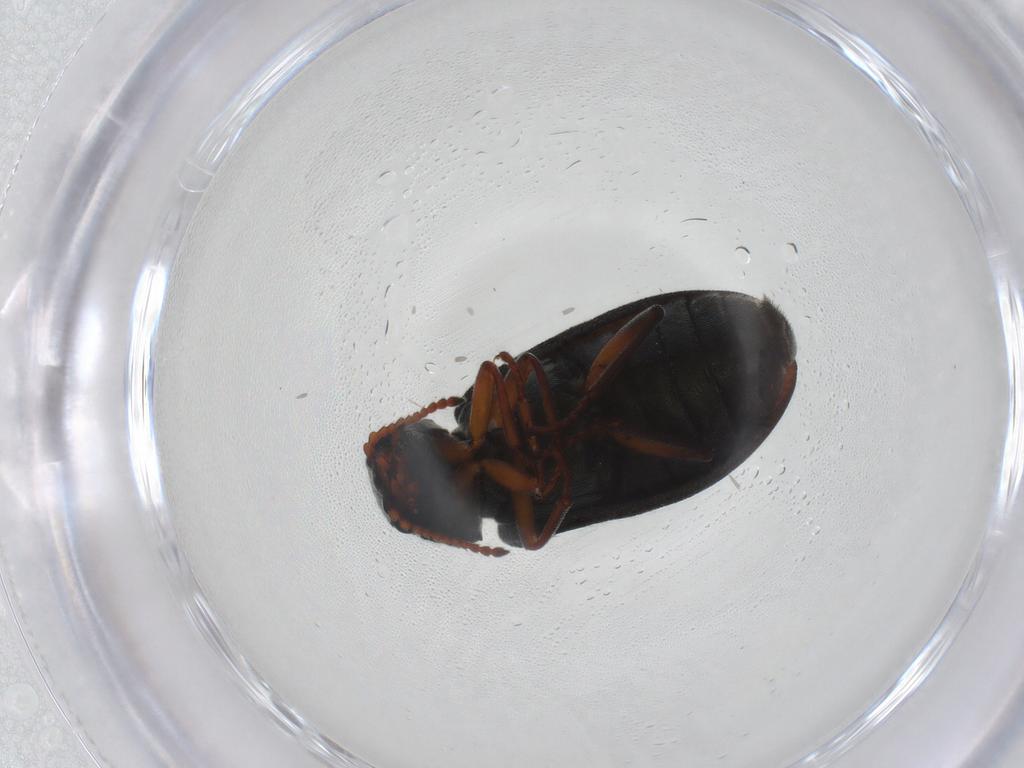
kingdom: Animalia
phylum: Arthropoda
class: Insecta
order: Coleoptera
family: Melyridae
